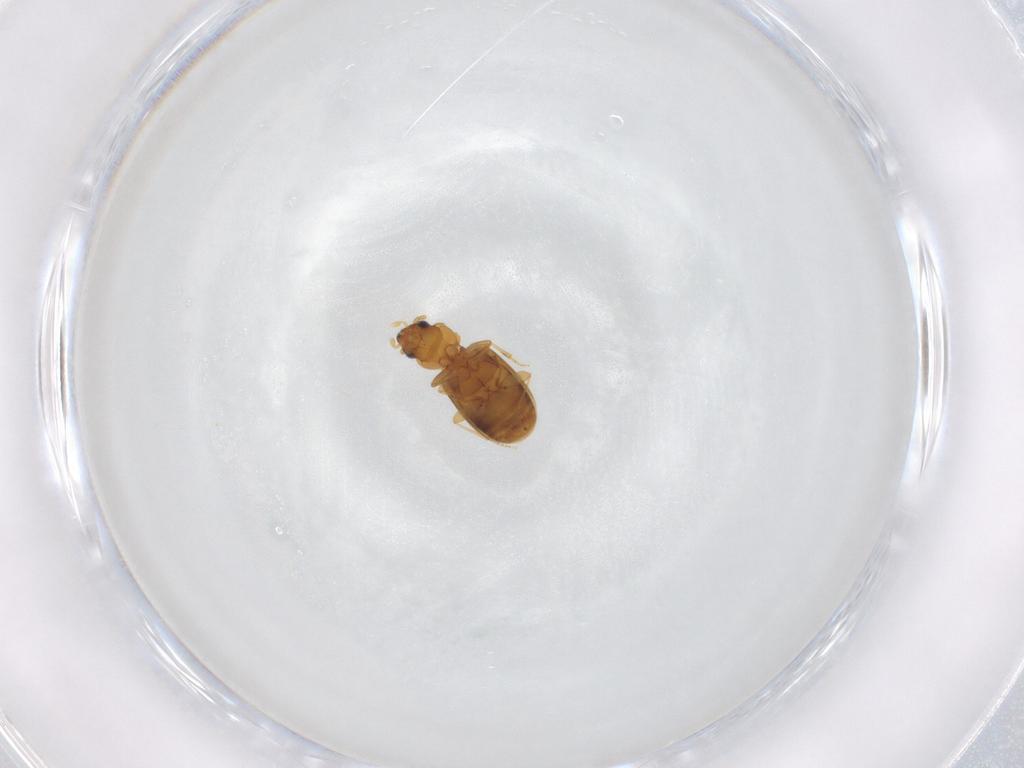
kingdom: Animalia
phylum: Arthropoda
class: Insecta
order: Coleoptera
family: Carabidae
